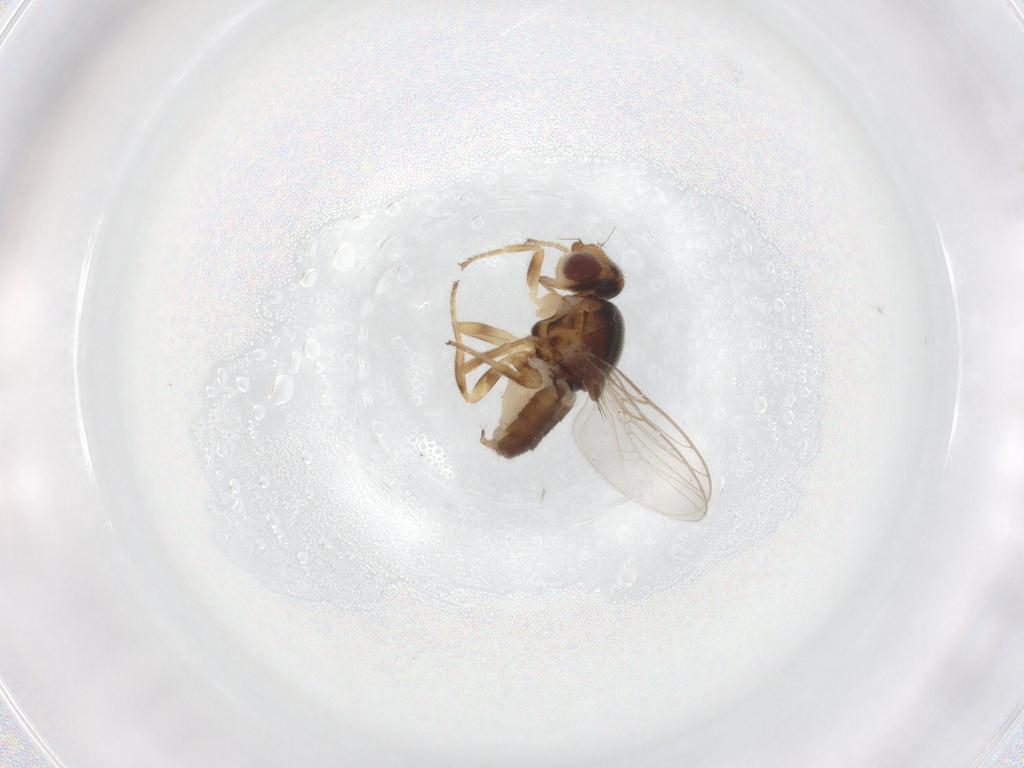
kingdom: Animalia
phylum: Arthropoda
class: Insecta
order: Diptera
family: Chloropidae
